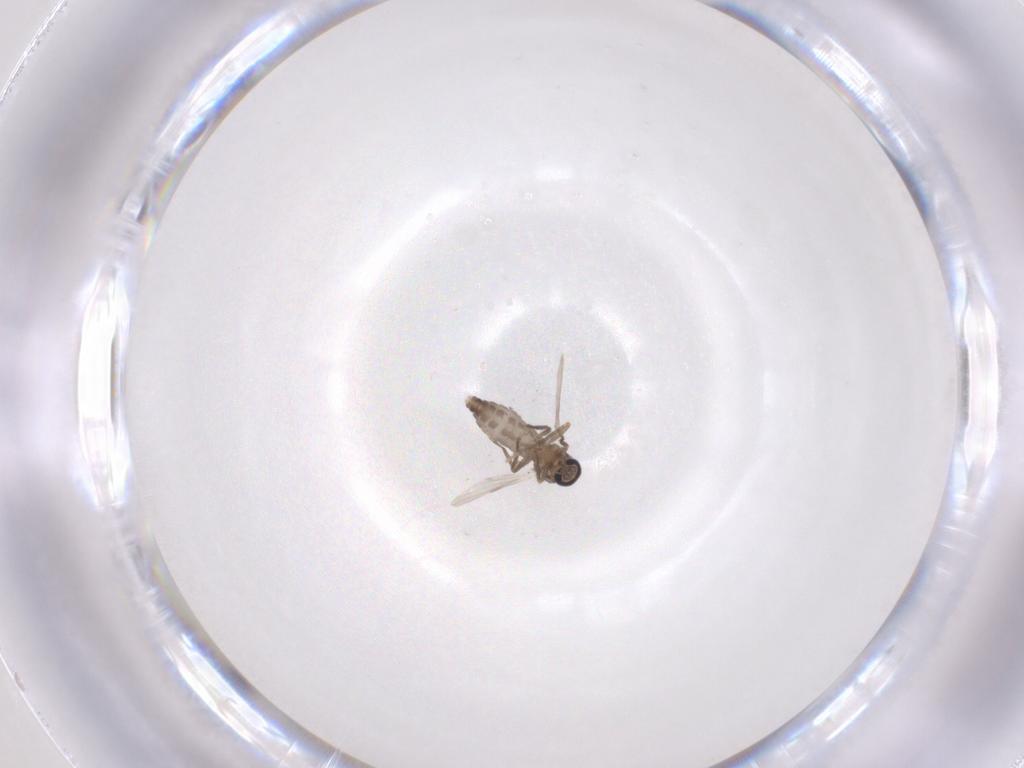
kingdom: Animalia
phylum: Arthropoda
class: Insecta
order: Diptera
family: Ceratopogonidae
